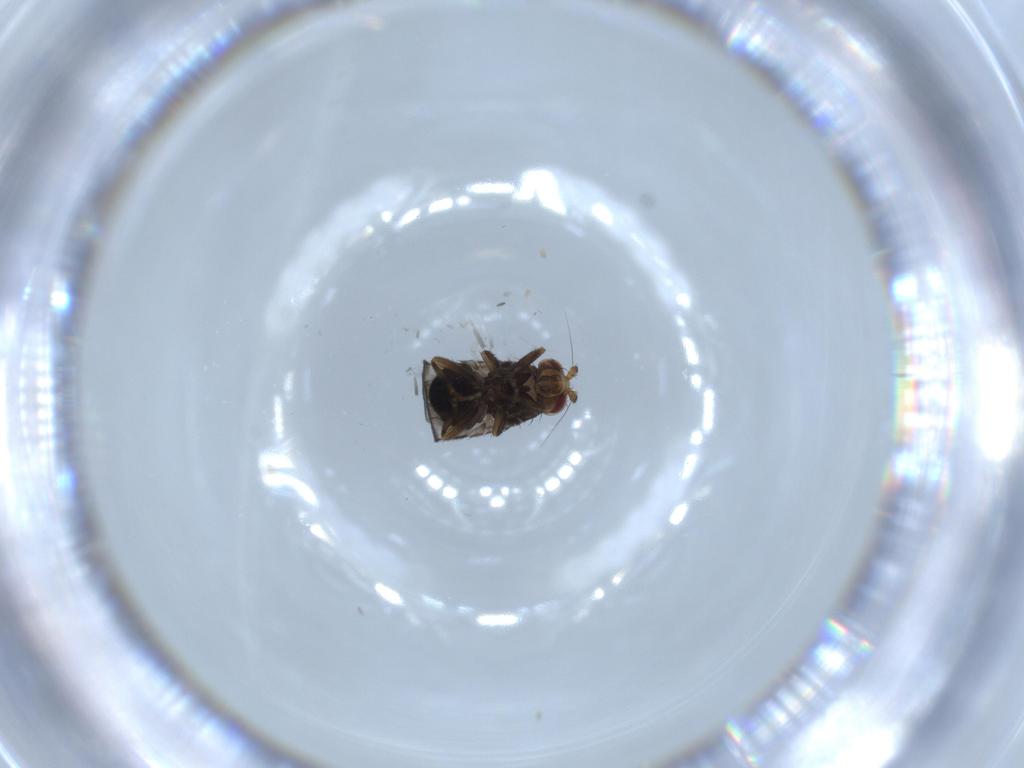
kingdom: Animalia
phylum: Arthropoda
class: Insecta
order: Diptera
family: Sphaeroceridae
